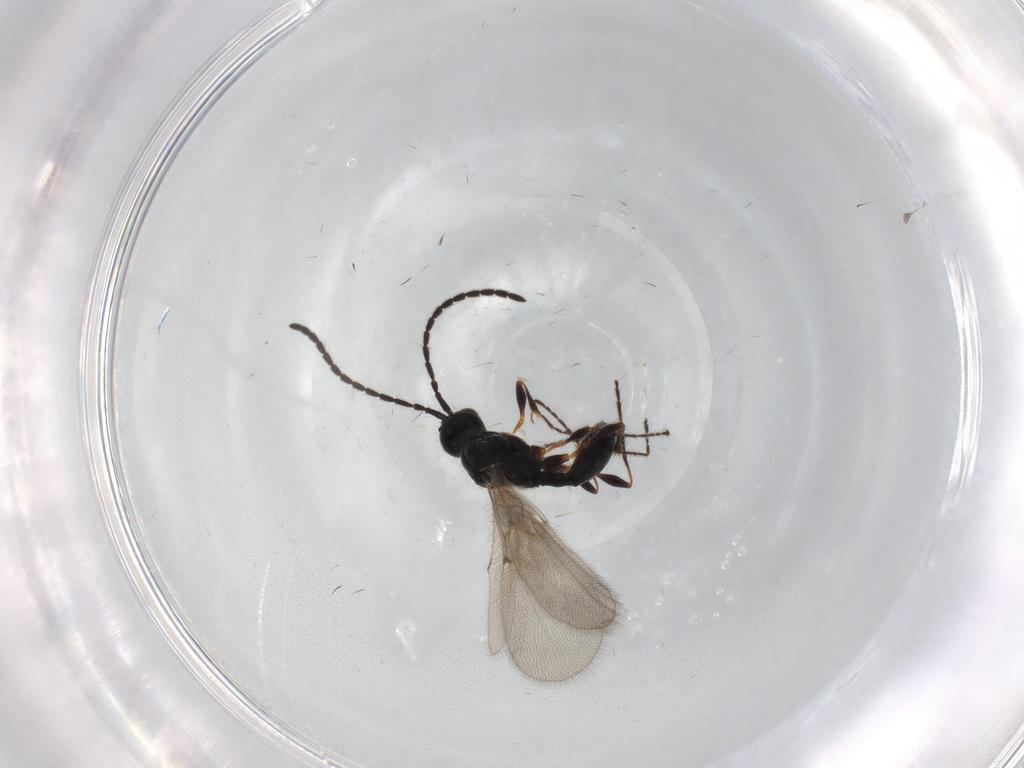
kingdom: Animalia
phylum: Arthropoda
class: Insecta
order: Hymenoptera
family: Diapriidae
